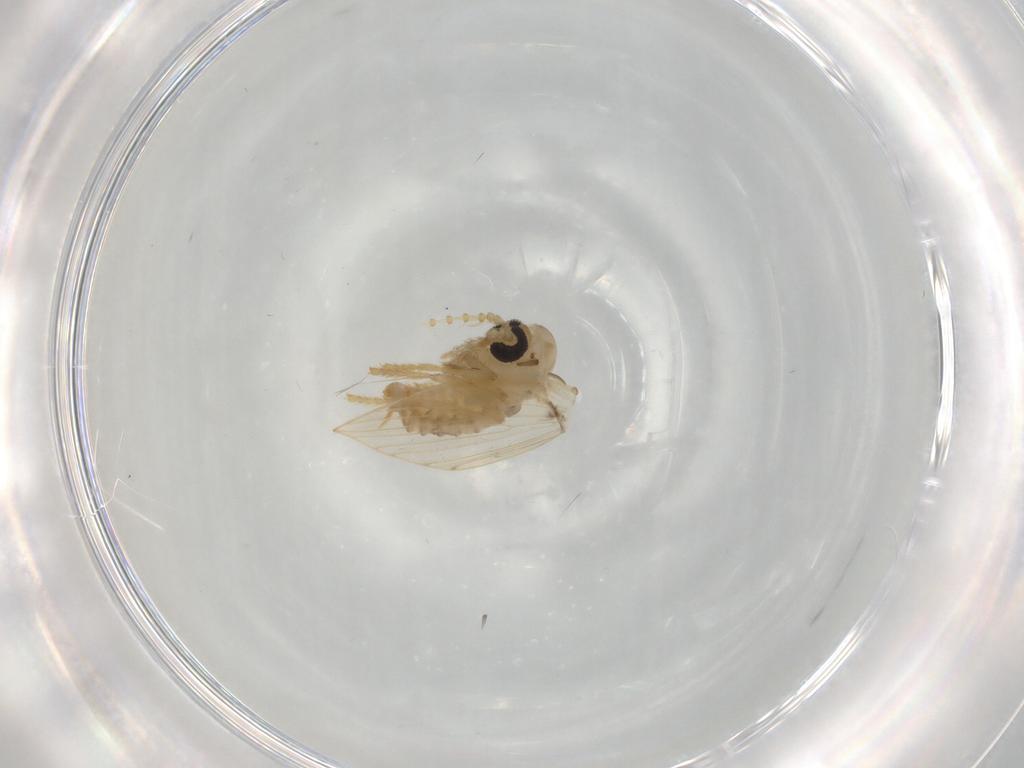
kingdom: Animalia
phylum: Arthropoda
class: Insecta
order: Diptera
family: Psychodidae
